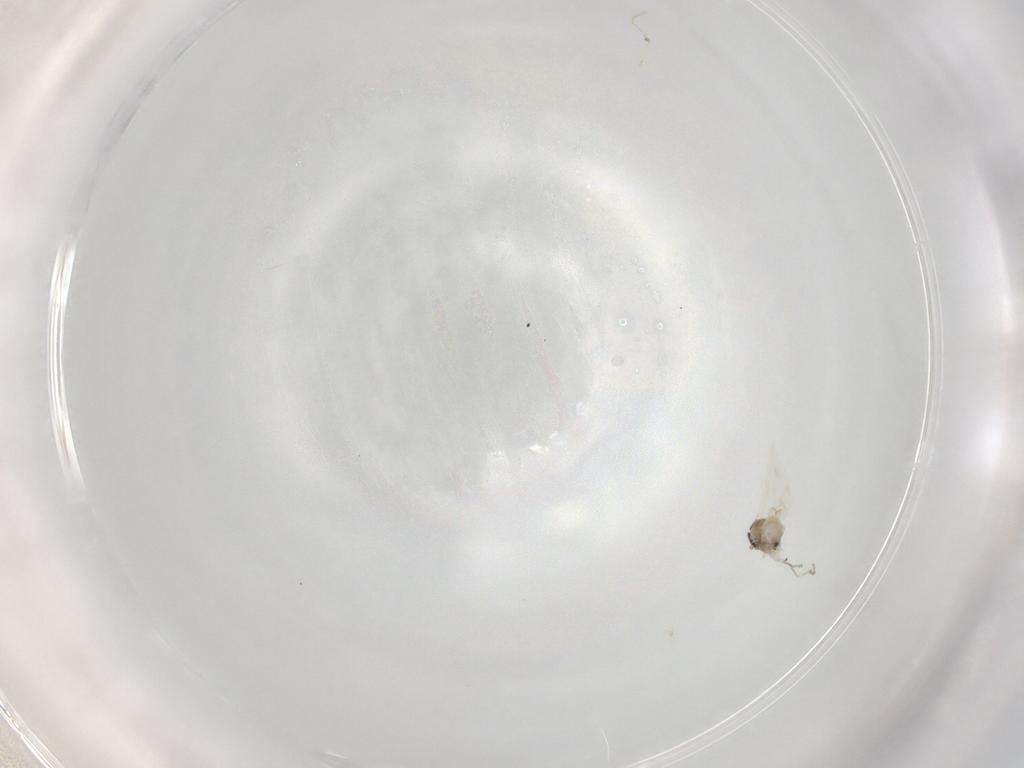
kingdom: Animalia
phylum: Arthropoda
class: Insecta
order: Diptera
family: Chironomidae
